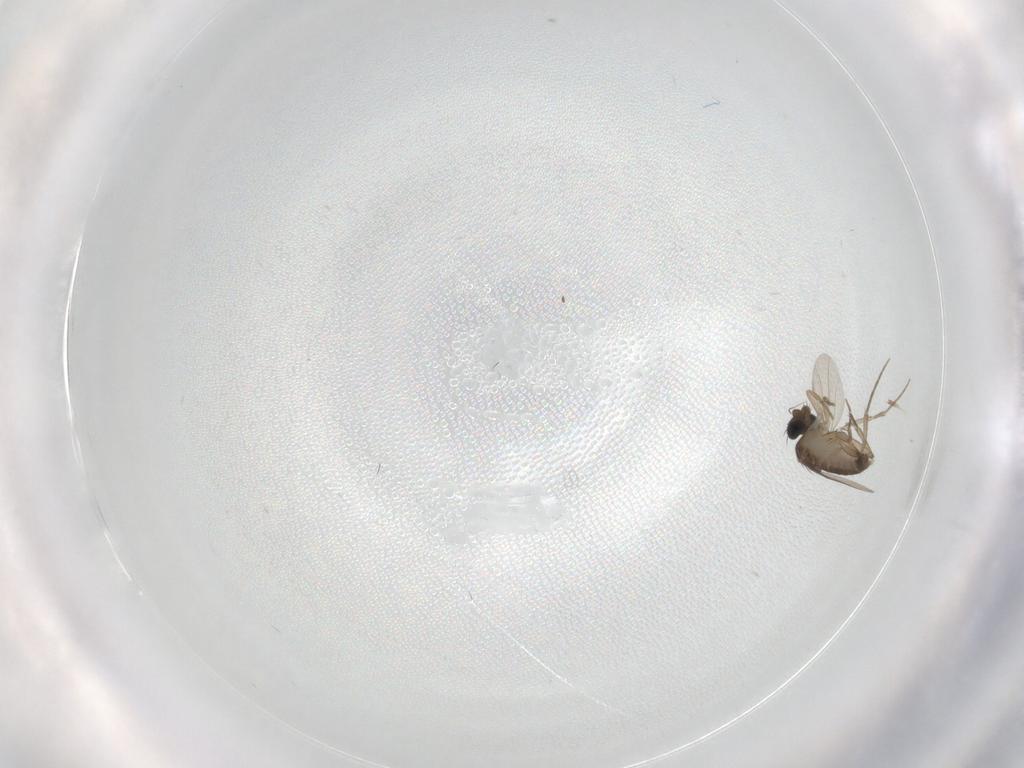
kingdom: Animalia
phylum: Arthropoda
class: Insecta
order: Diptera
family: Phoridae
